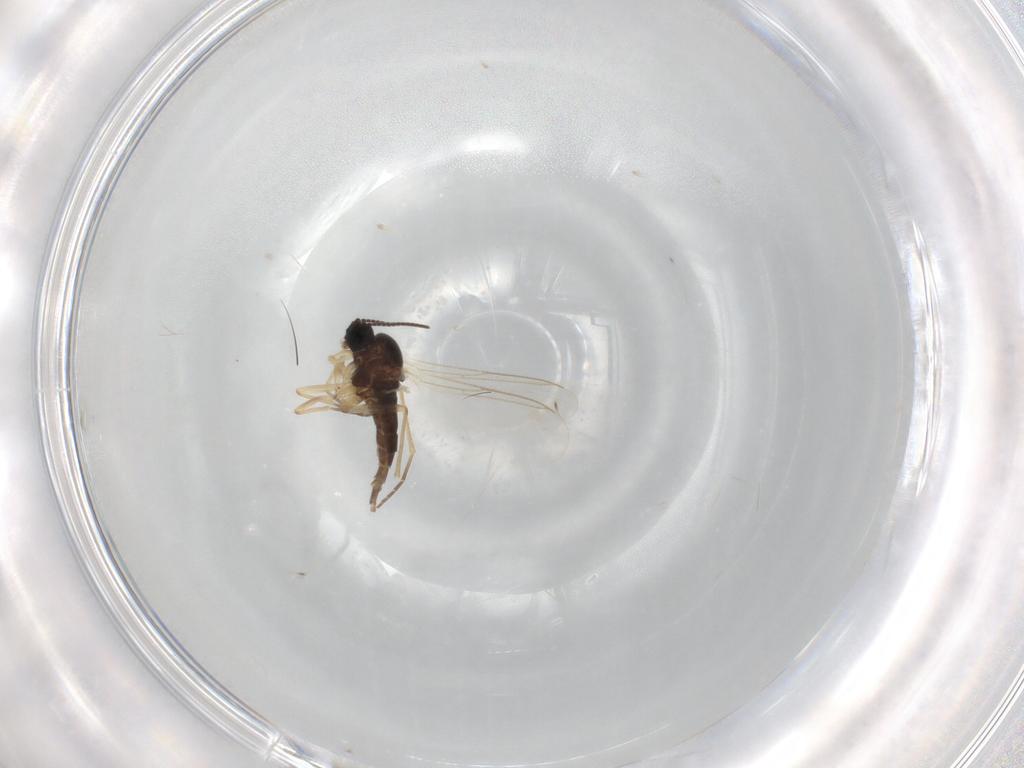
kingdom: Animalia
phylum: Arthropoda
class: Insecta
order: Diptera
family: Sciaridae
